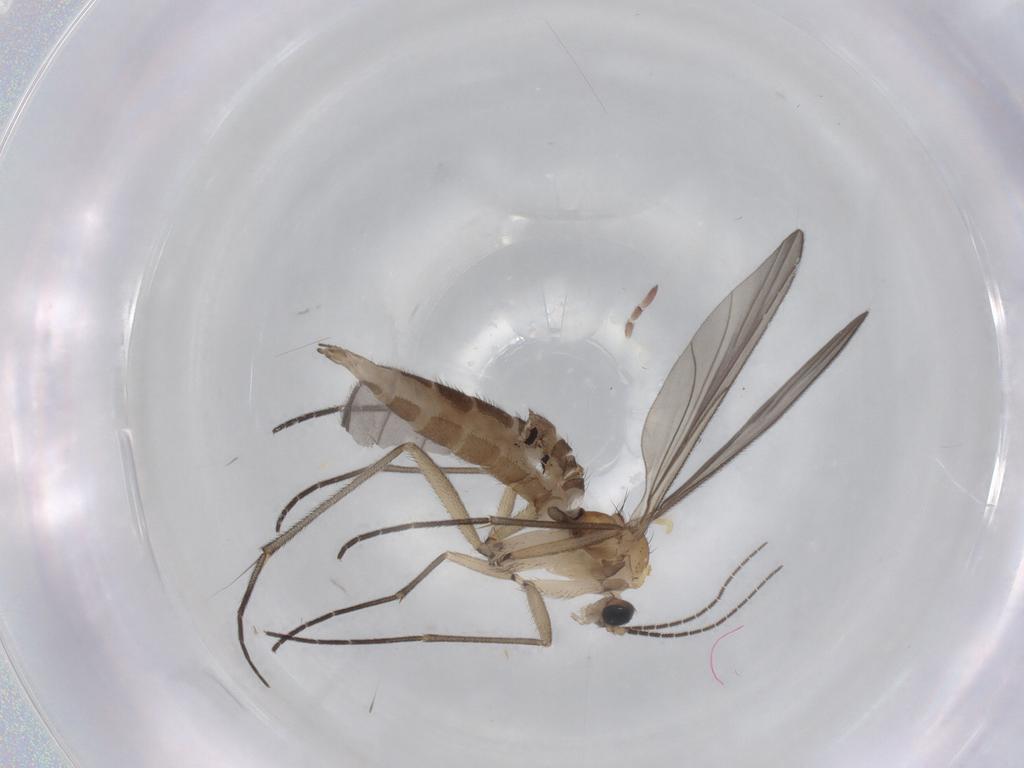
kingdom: Animalia
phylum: Arthropoda
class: Insecta
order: Diptera
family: Sciaridae
